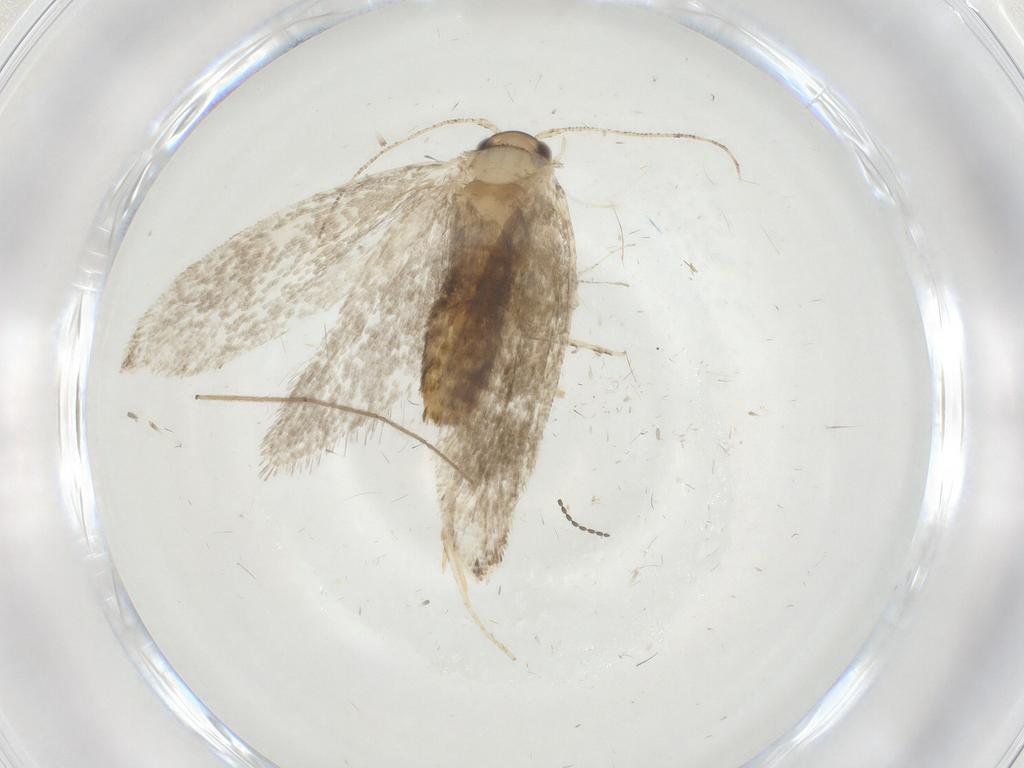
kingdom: Animalia
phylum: Arthropoda
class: Insecta
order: Lepidoptera
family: Tineidae
